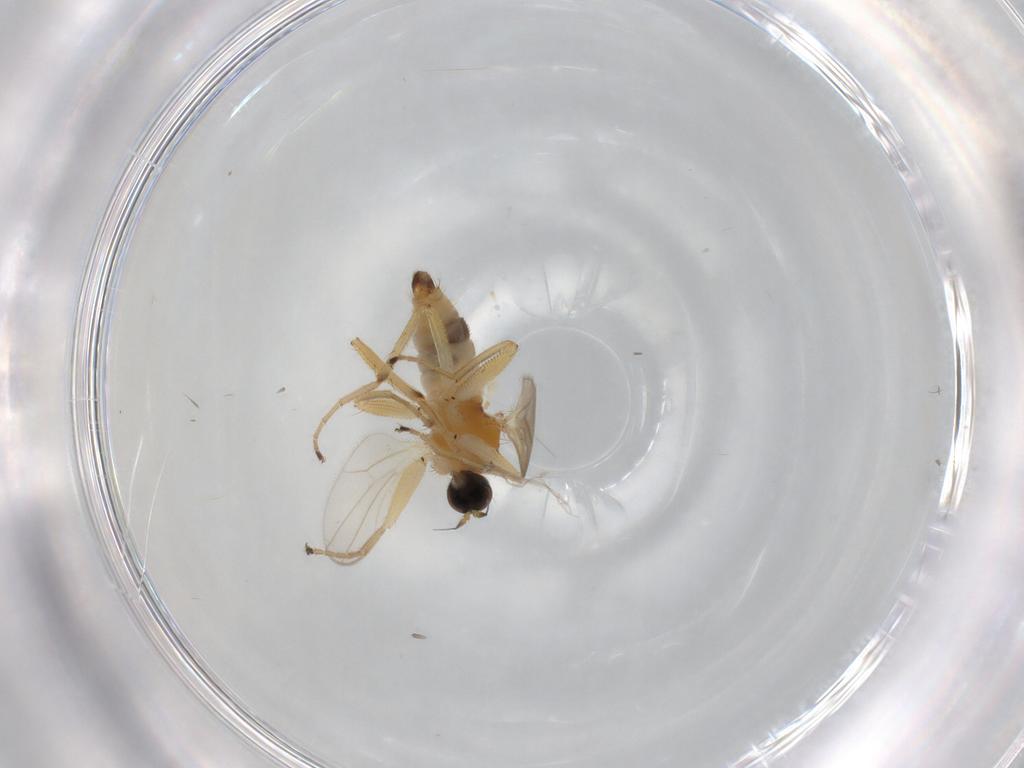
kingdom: Animalia
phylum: Arthropoda
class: Insecta
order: Diptera
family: Hybotidae
